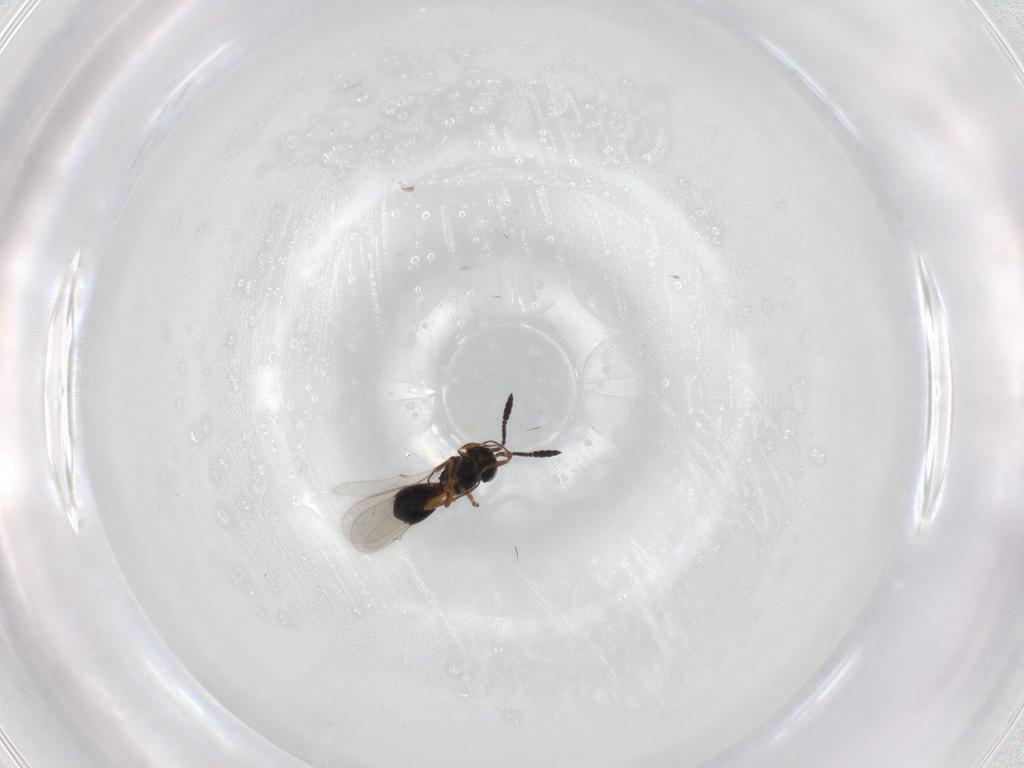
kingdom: Animalia
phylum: Arthropoda
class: Insecta
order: Hymenoptera
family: Scelionidae
